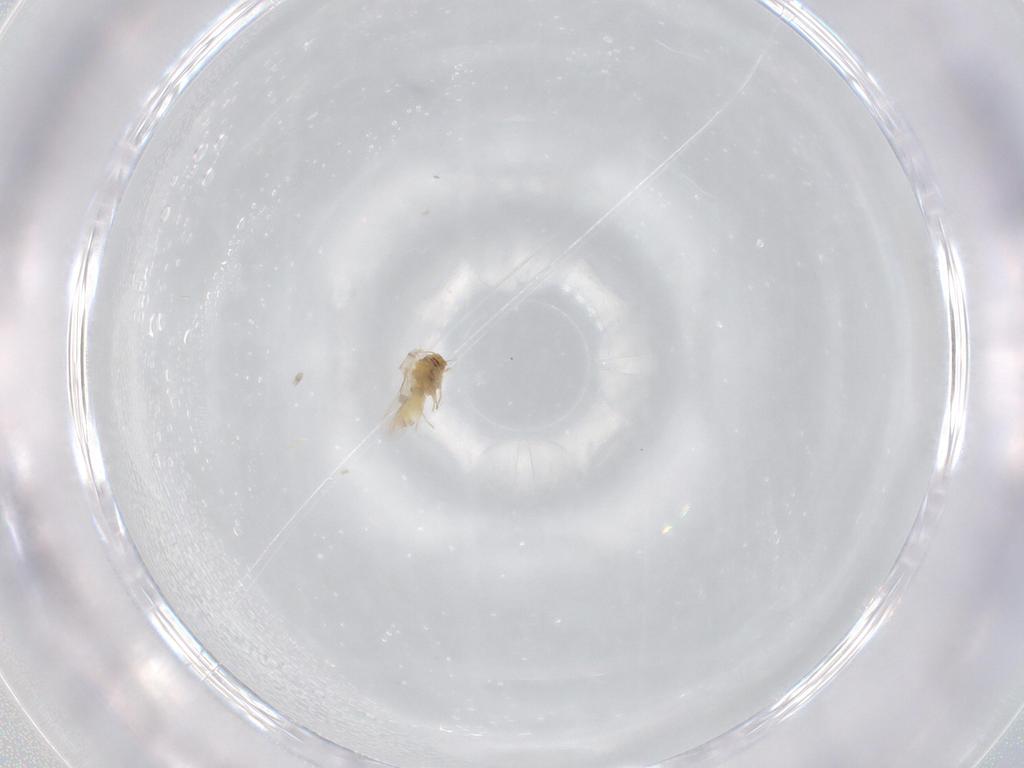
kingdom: Animalia
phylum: Arthropoda
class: Insecta
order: Hemiptera
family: Aleyrodidae
